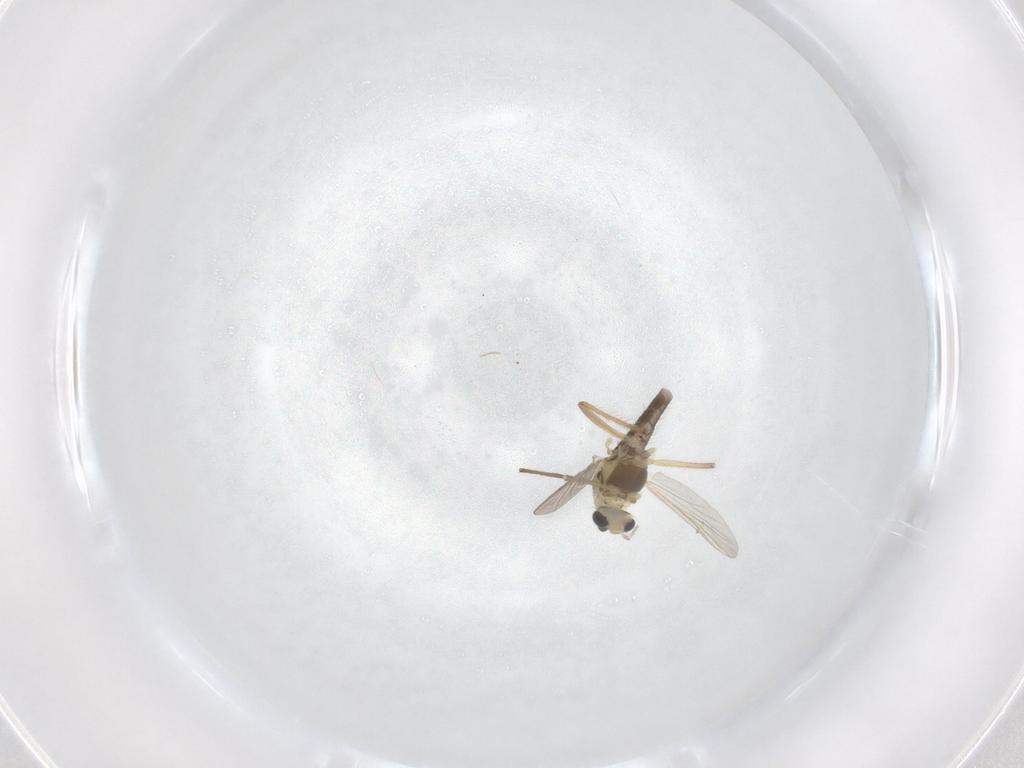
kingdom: Animalia
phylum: Arthropoda
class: Insecta
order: Diptera
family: Chironomidae
